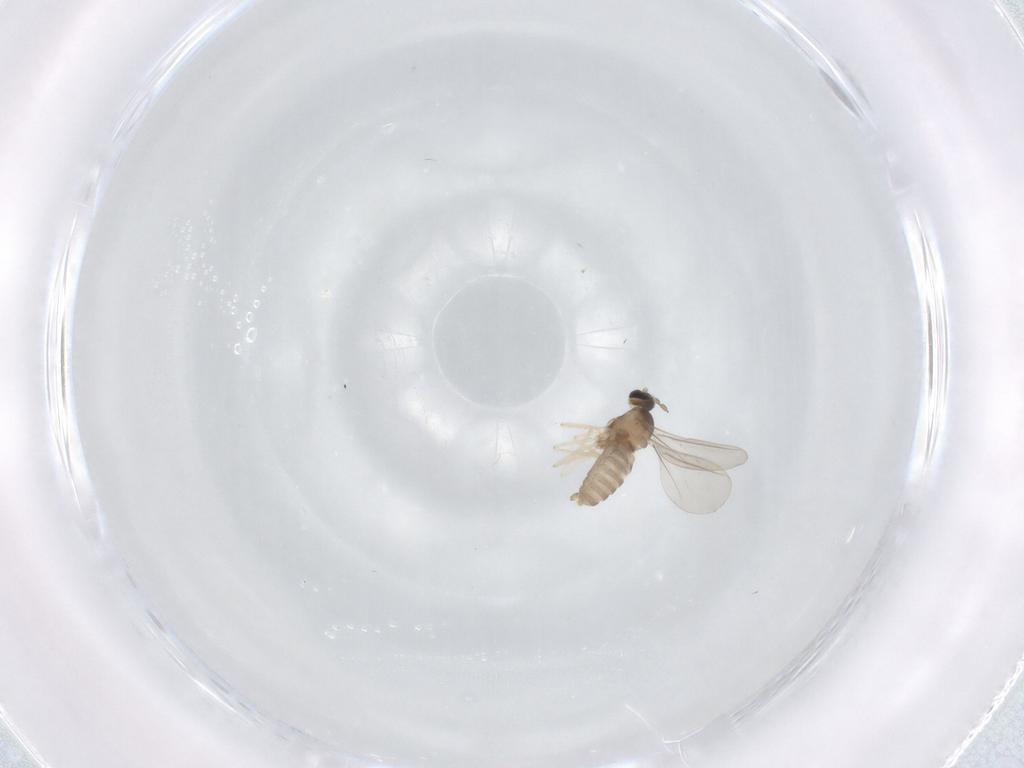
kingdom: Animalia
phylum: Arthropoda
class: Insecta
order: Diptera
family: Cecidomyiidae
